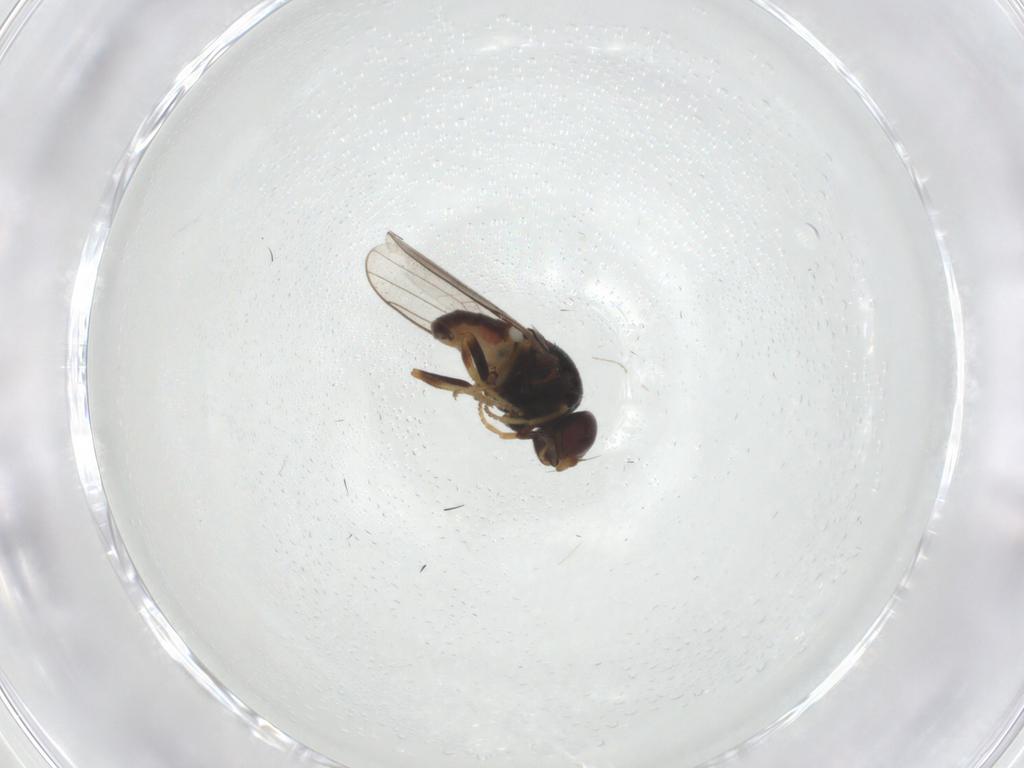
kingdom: Animalia
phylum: Arthropoda
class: Insecta
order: Diptera
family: Chloropidae
